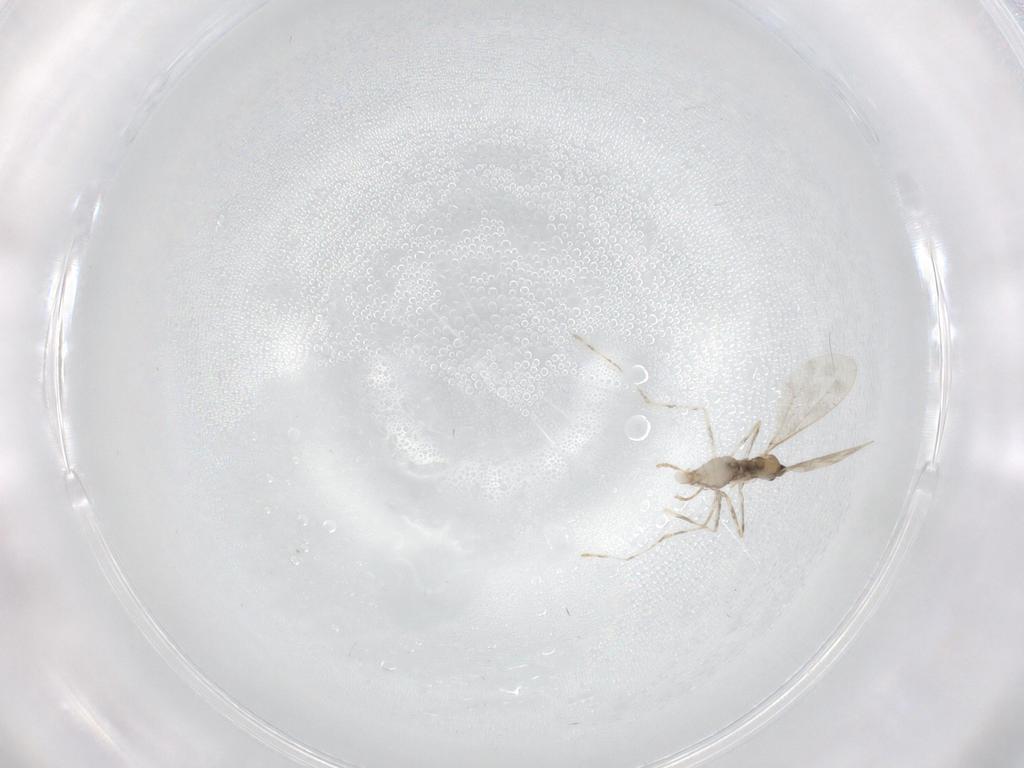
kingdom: Animalia
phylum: Arthropoda
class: Insecta
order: Diptera
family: Cecidomyiidae
